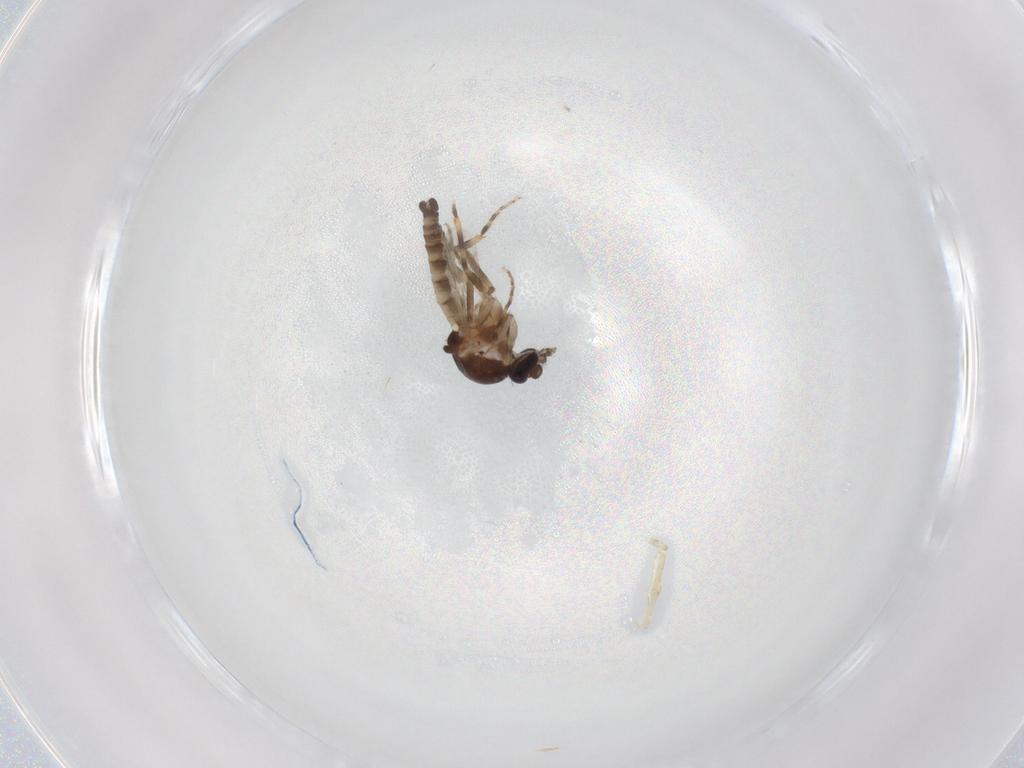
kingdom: Animalia
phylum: Arthropoda
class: Insecta
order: Diptera
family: Ceratopogonidae
